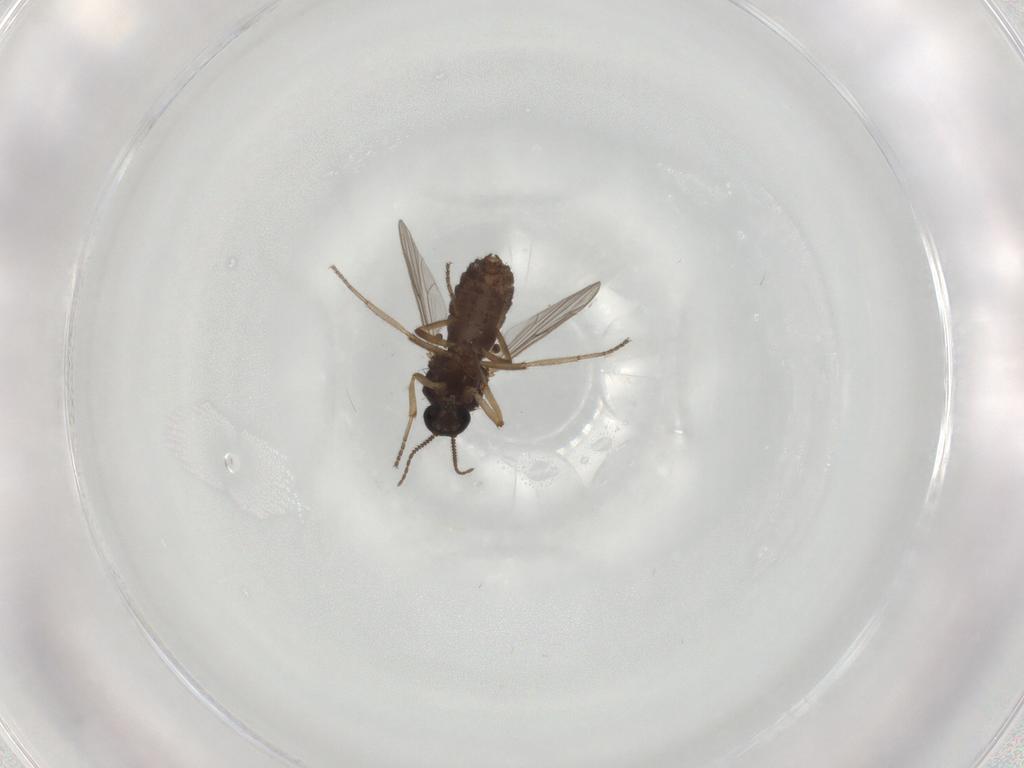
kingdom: Animalia
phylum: Arthropoda
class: Insecta
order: Diptera
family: Ceratopogonidae
